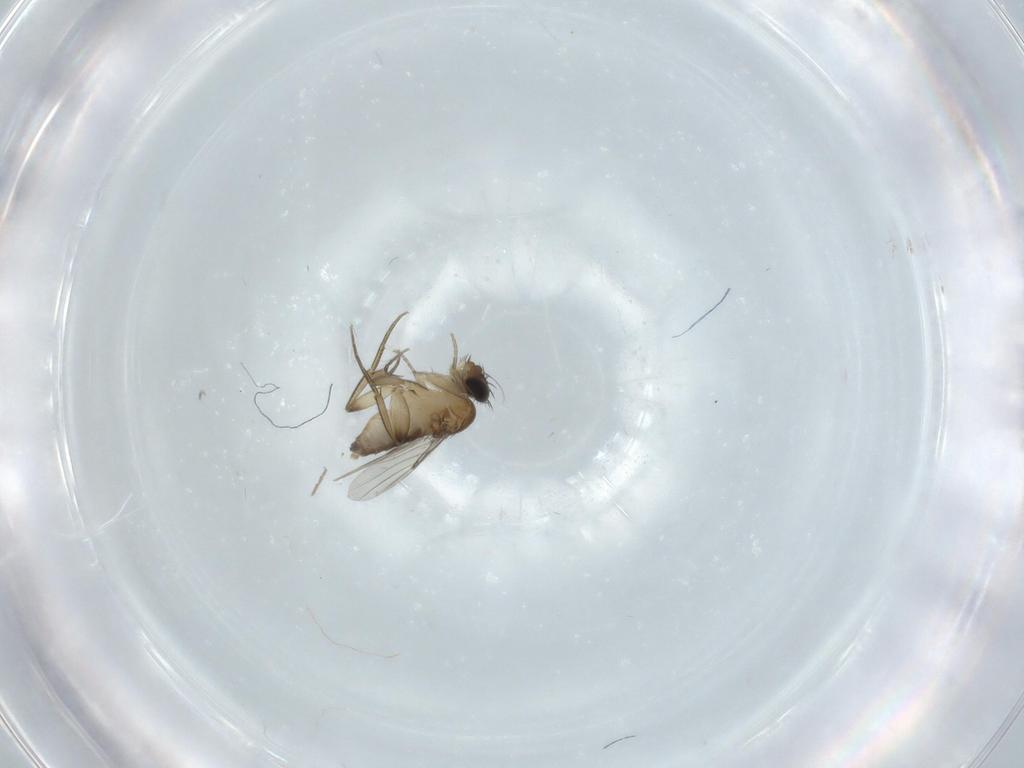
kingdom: Animalia
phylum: Arthropoda
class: Insecta
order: Diptera
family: Phoridae
